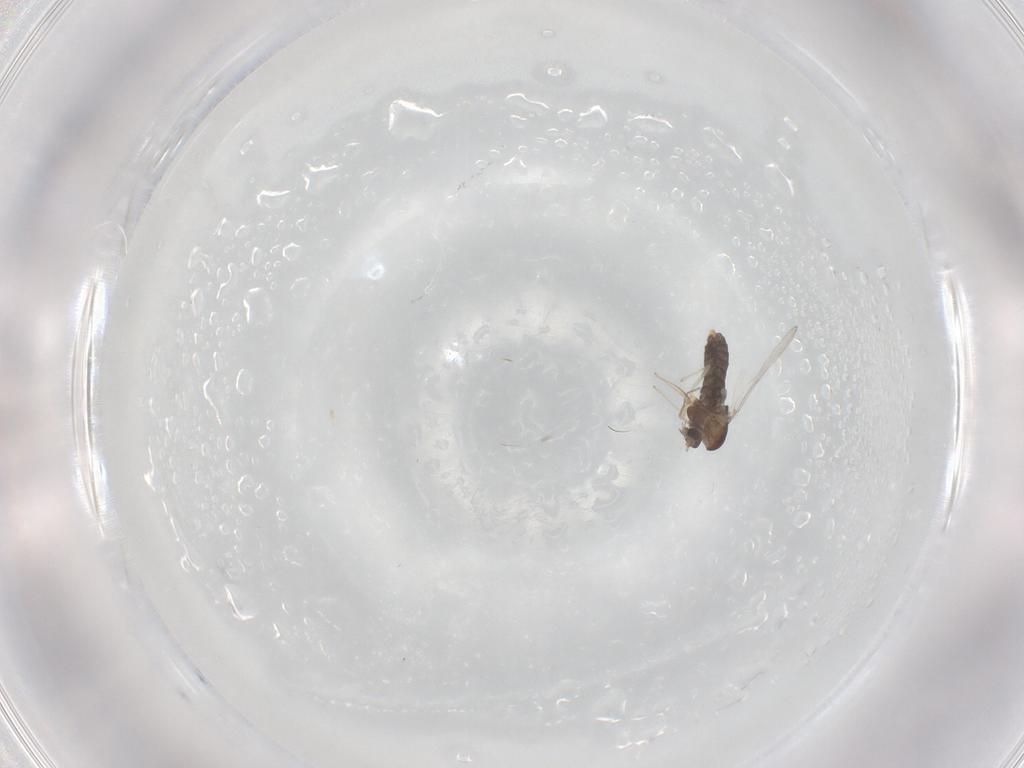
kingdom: Animalia
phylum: Arthropoda
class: Insecta
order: Diptera
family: Chironomidae
